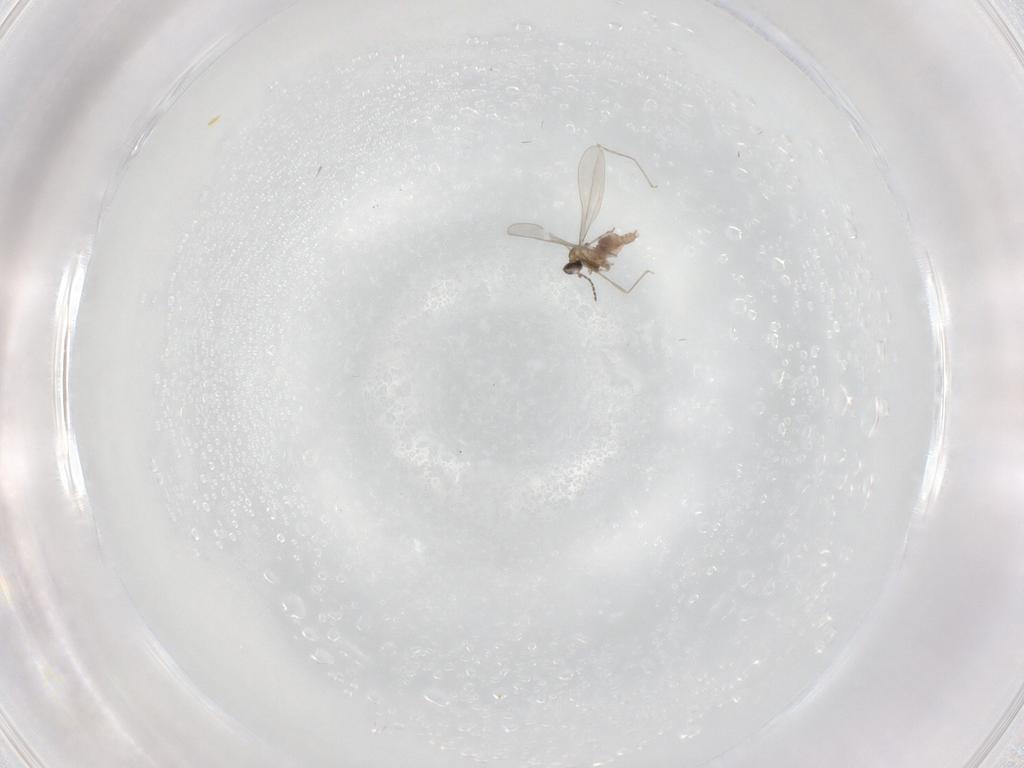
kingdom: Animalia
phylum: Arthropoda
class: Insecta
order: Diptera
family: Cecidomyiidae
